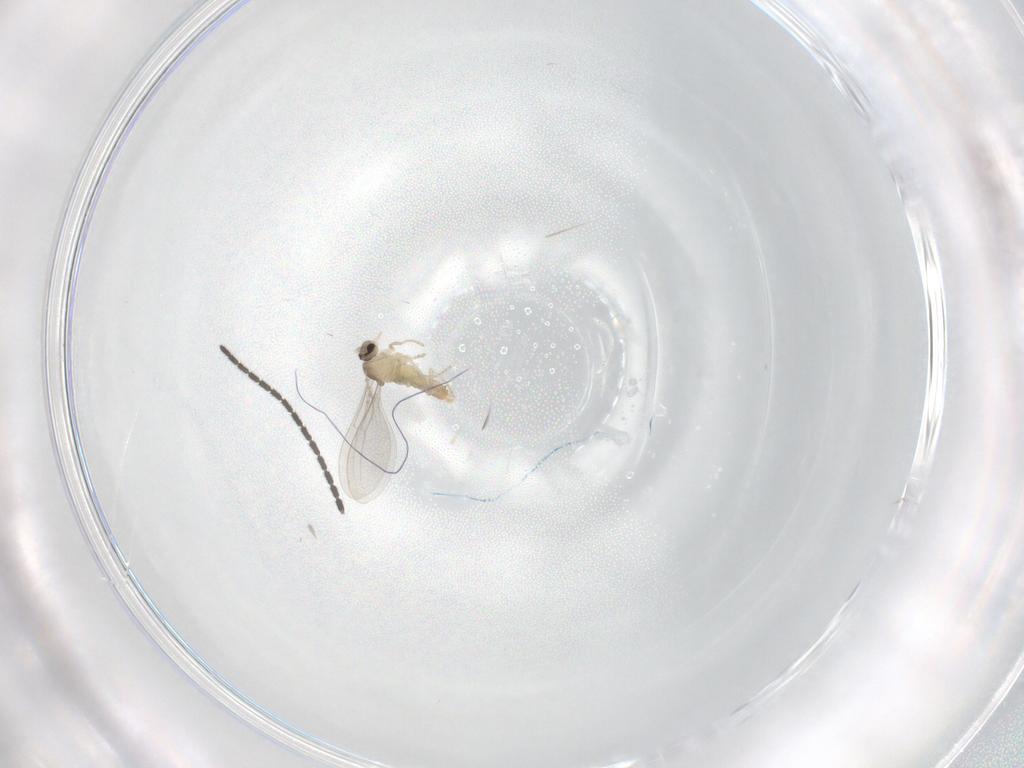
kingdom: Animalia
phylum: Arthropoda
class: Insecta
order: Diptera
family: Cecidomyiidae
